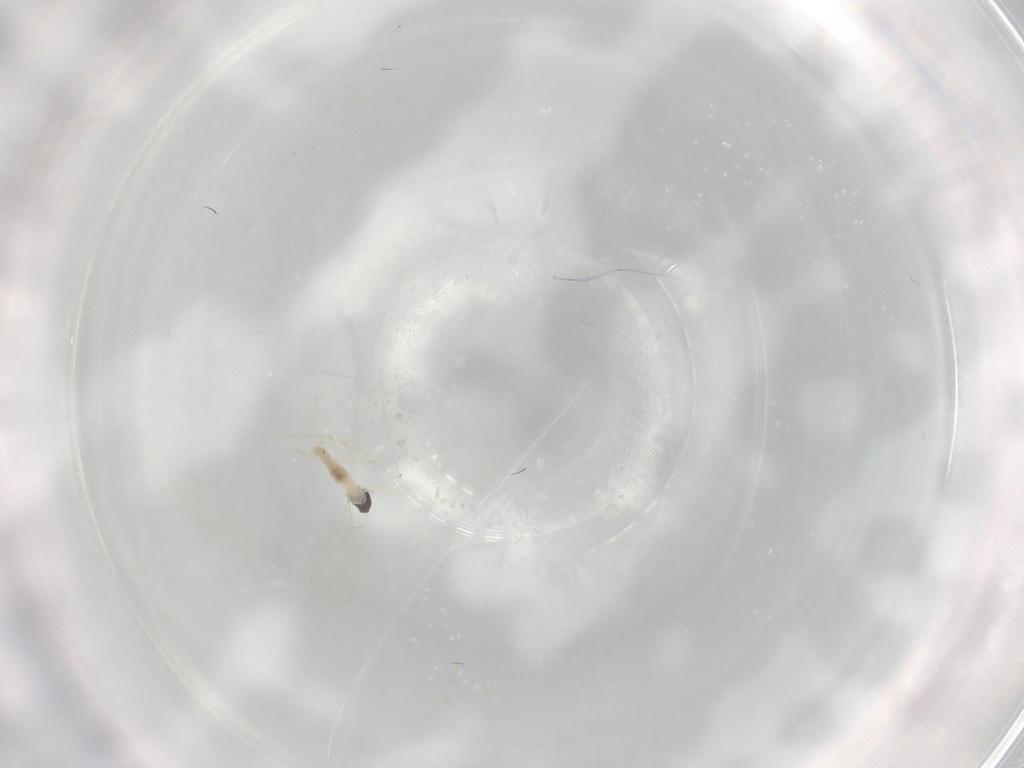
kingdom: Animalia
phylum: Arthropoda
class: Insecta
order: Diptera
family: Cecidomyiidae
